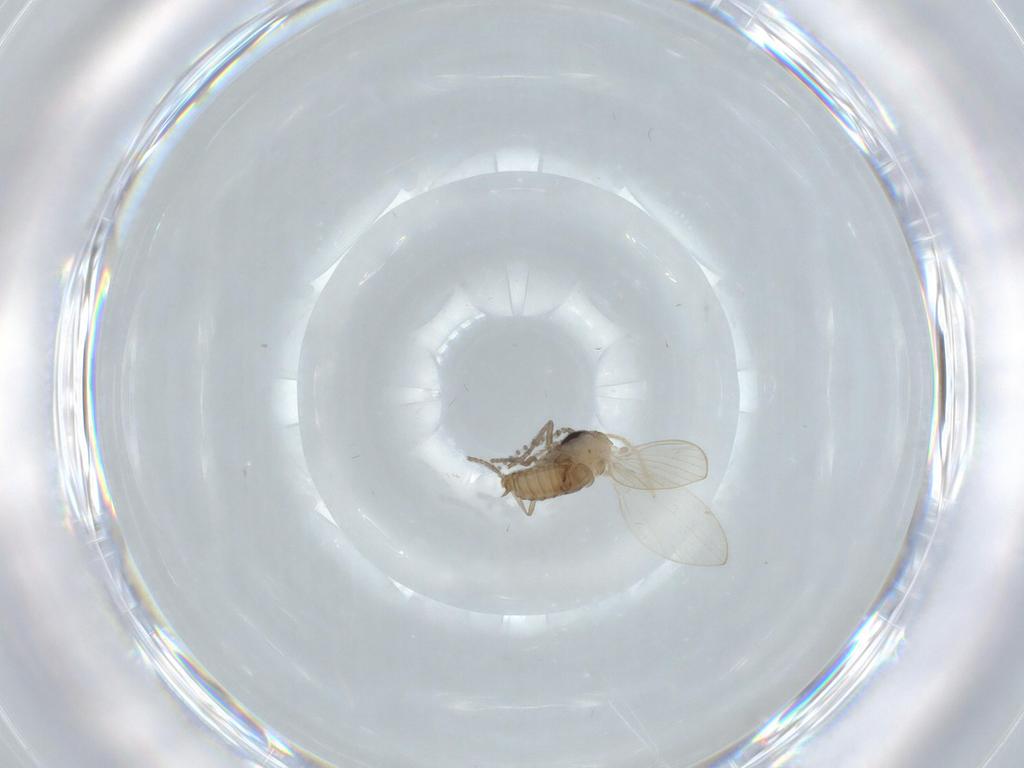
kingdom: Animalia
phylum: Arthropoda
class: Insecta
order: Diptera
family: Psychodidae
